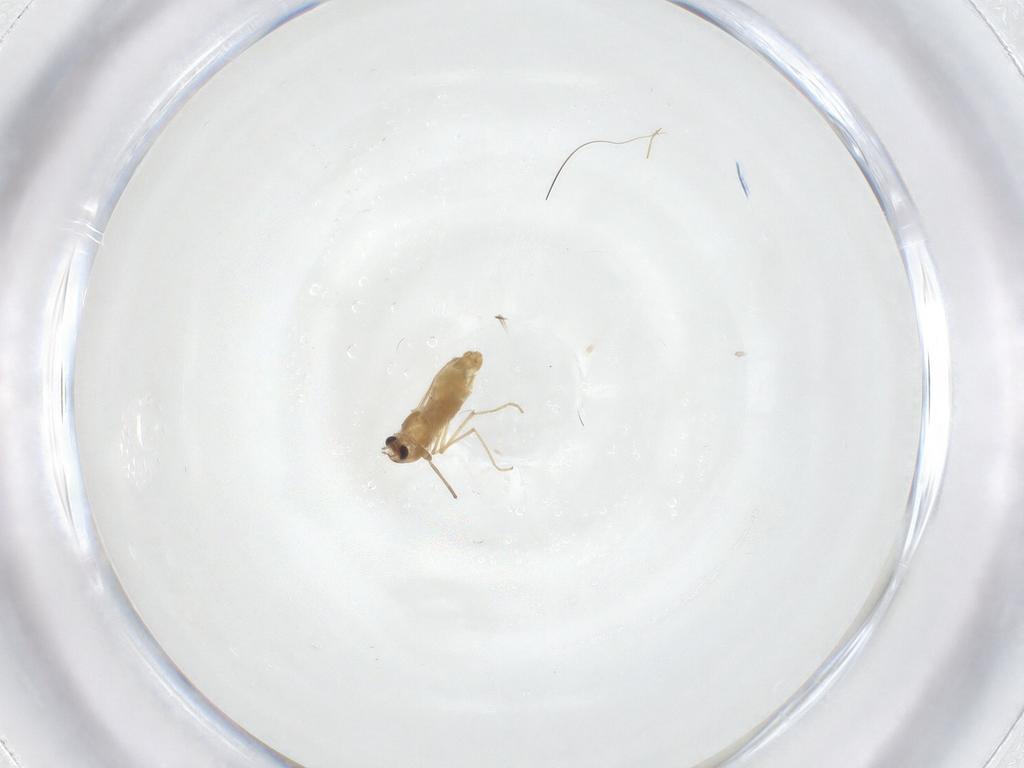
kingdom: Animalia
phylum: Arthropoda
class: Insecta
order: Diptera
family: Chironomidae
